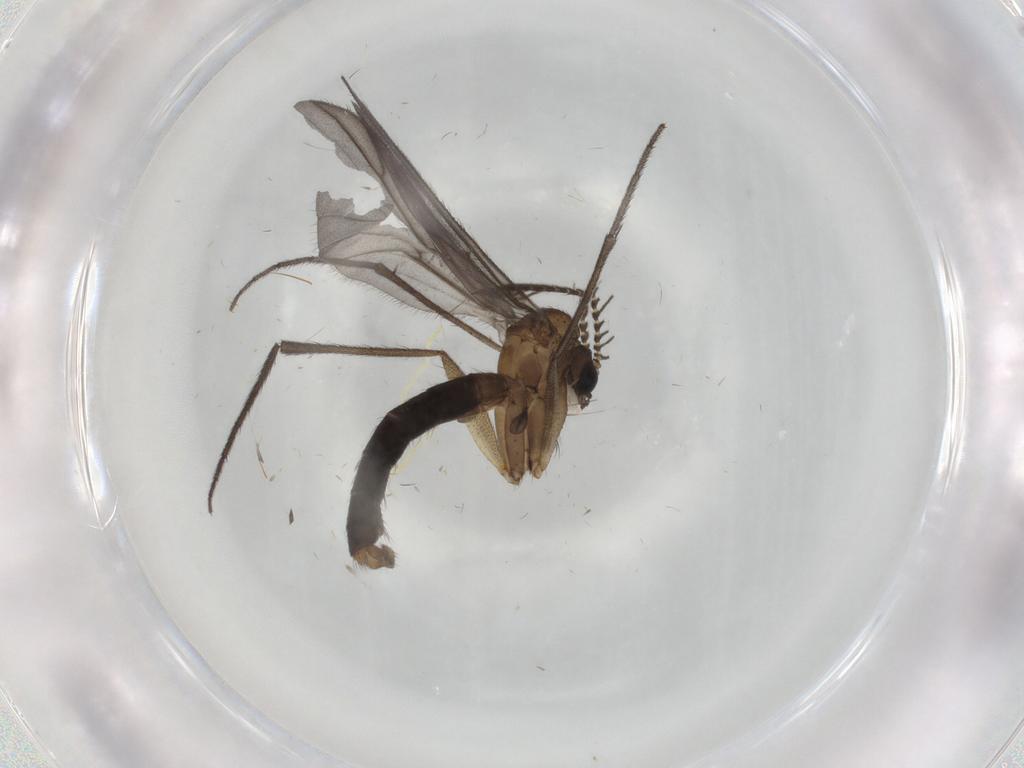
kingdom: Animalia
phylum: Arthropoda
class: Insecta
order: Diptera
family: Ditomyiidae
